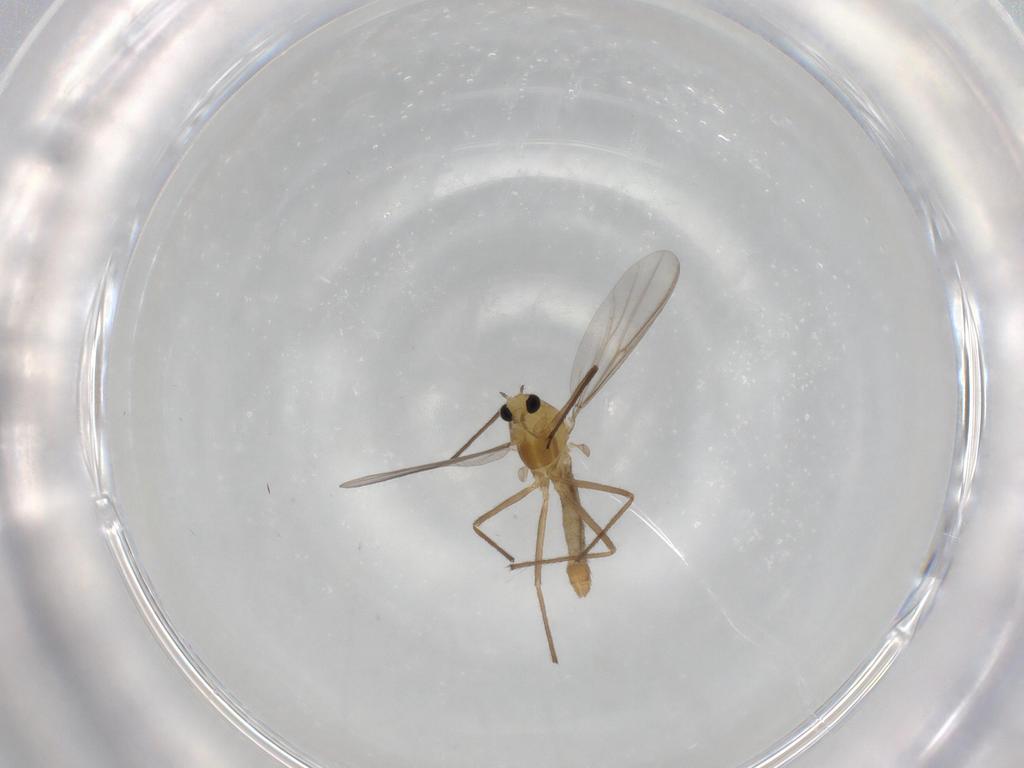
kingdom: Animalia
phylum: Arthropoda
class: Insecta
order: Diptera
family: Chironomidae
